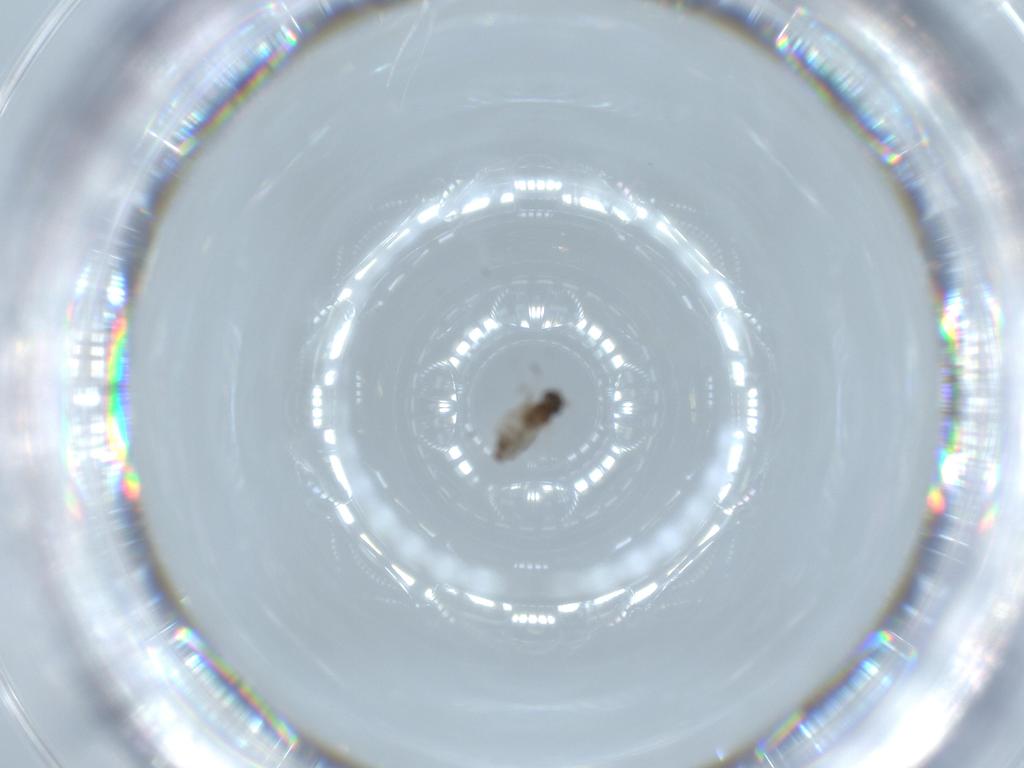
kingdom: Animalia
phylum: Arthropoda
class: Insecta
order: Diptera
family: Cecidomyiidae
